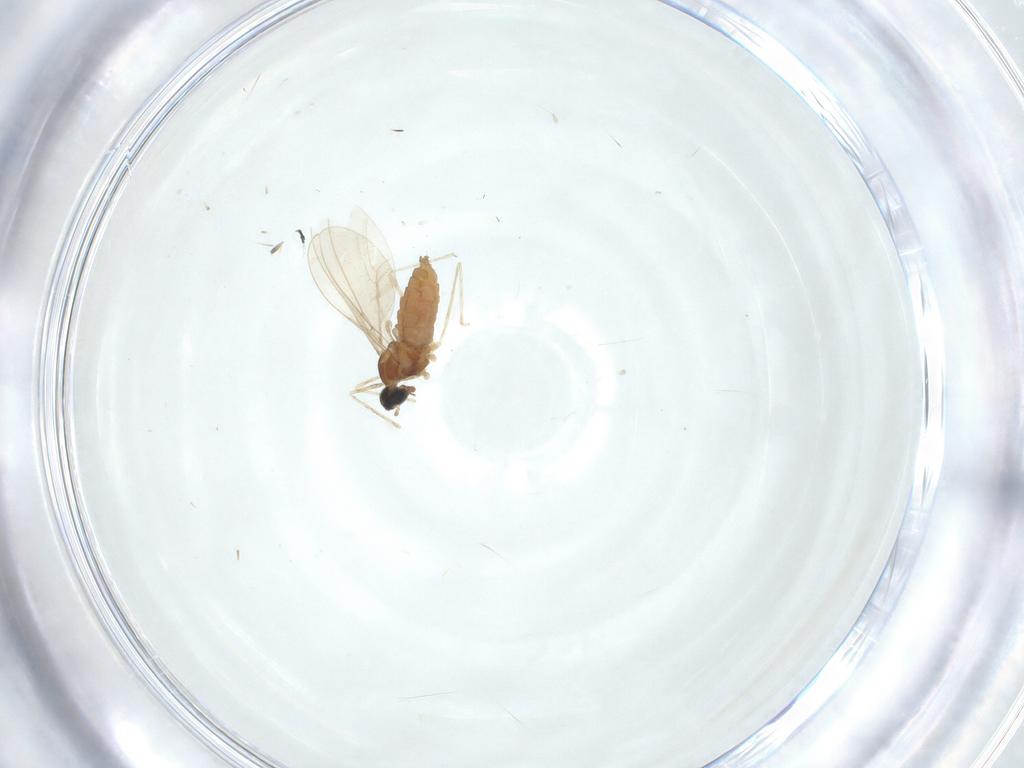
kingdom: Animalia
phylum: Arthropoda
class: Insecta
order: Diptera
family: Cecidomyiidae
